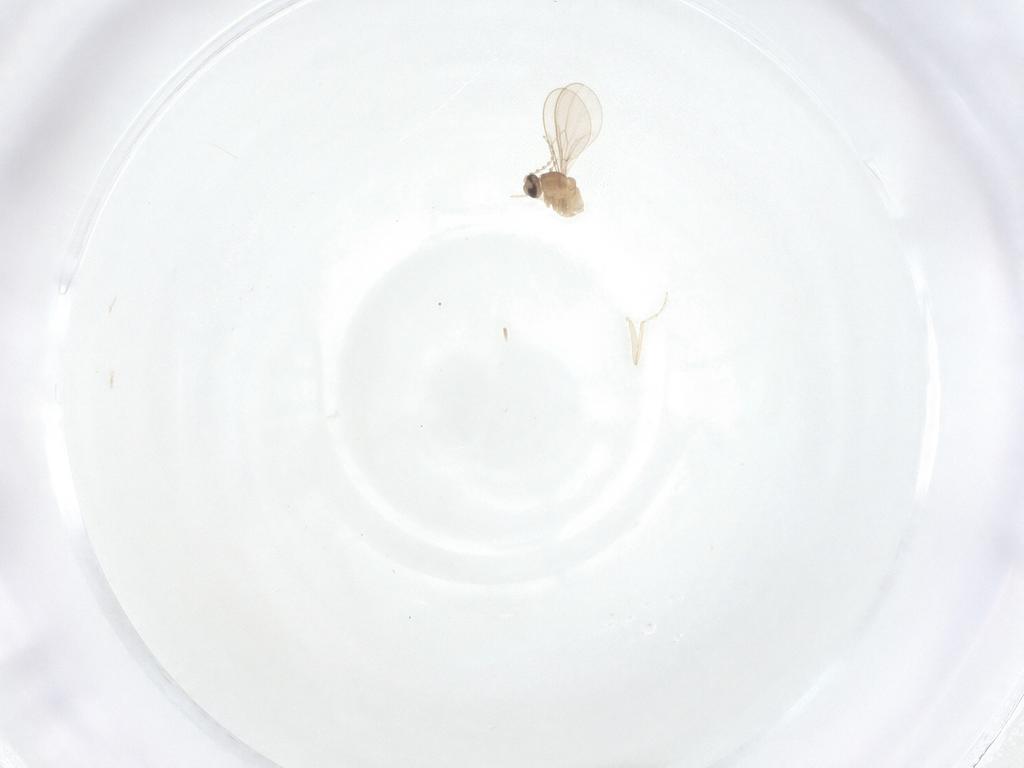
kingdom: Animalia
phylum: Arthropoda
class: Insecta
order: Diptera
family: Cecidomyiidae
